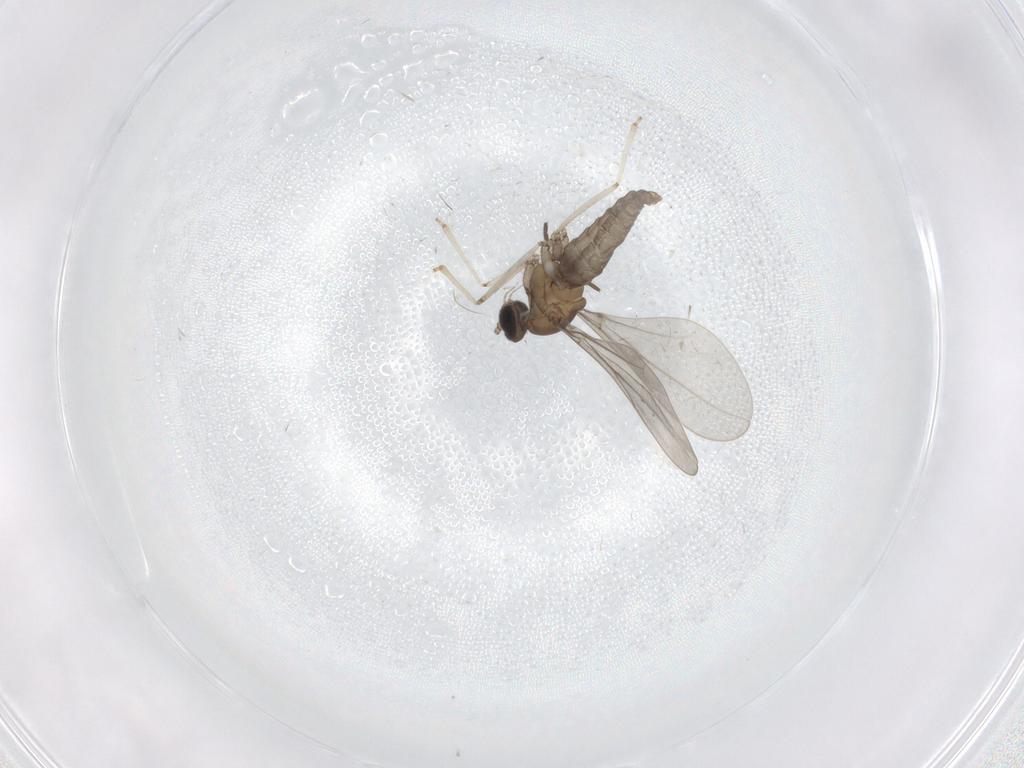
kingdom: Animalia
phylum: Arthropoda
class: Insecta
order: Diptera
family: Cecidomyiidae
